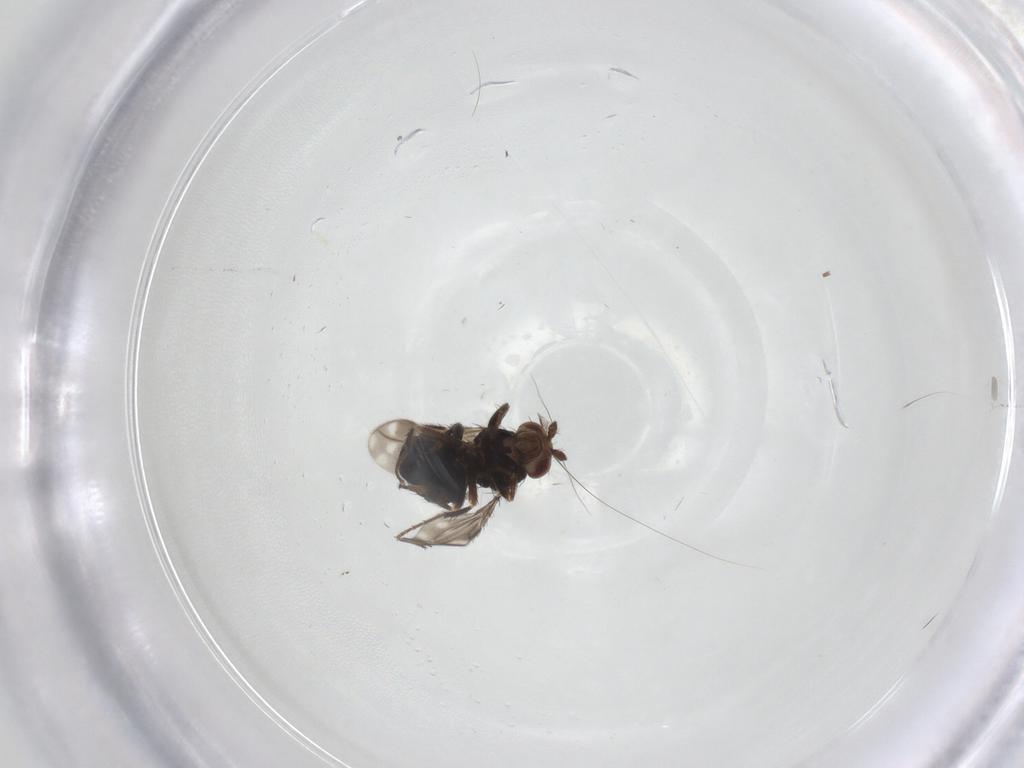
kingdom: Animalia
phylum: Arthropoda
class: Insecta
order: Diptera
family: Sphaeroceridae
